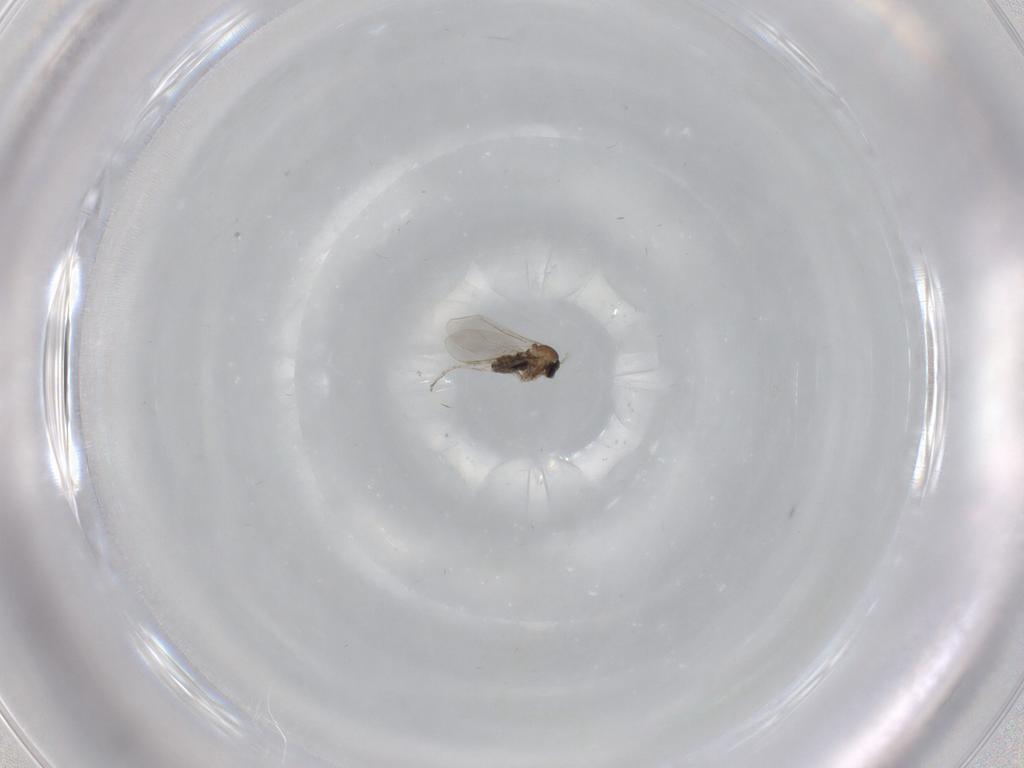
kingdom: Animalia
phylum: Arthropoda
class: Insecta
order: Diptera
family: Cecidomyiidae
